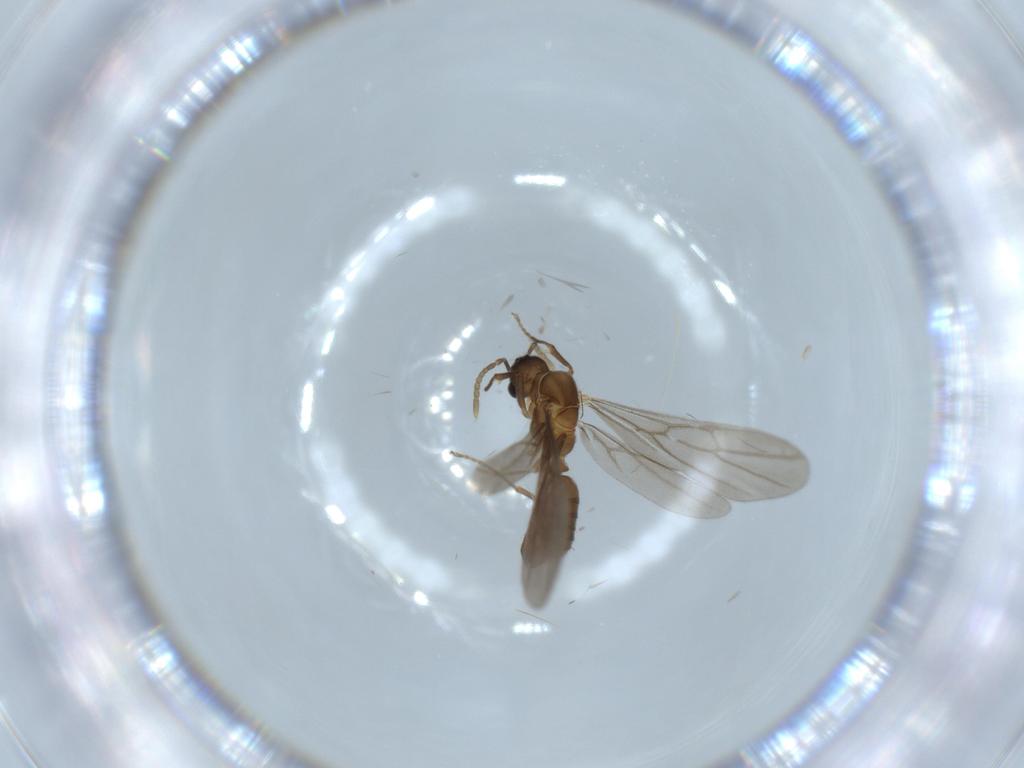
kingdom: Animalia
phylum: Arthropoda
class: Insecta
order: Hymenoptera
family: Formicidae
